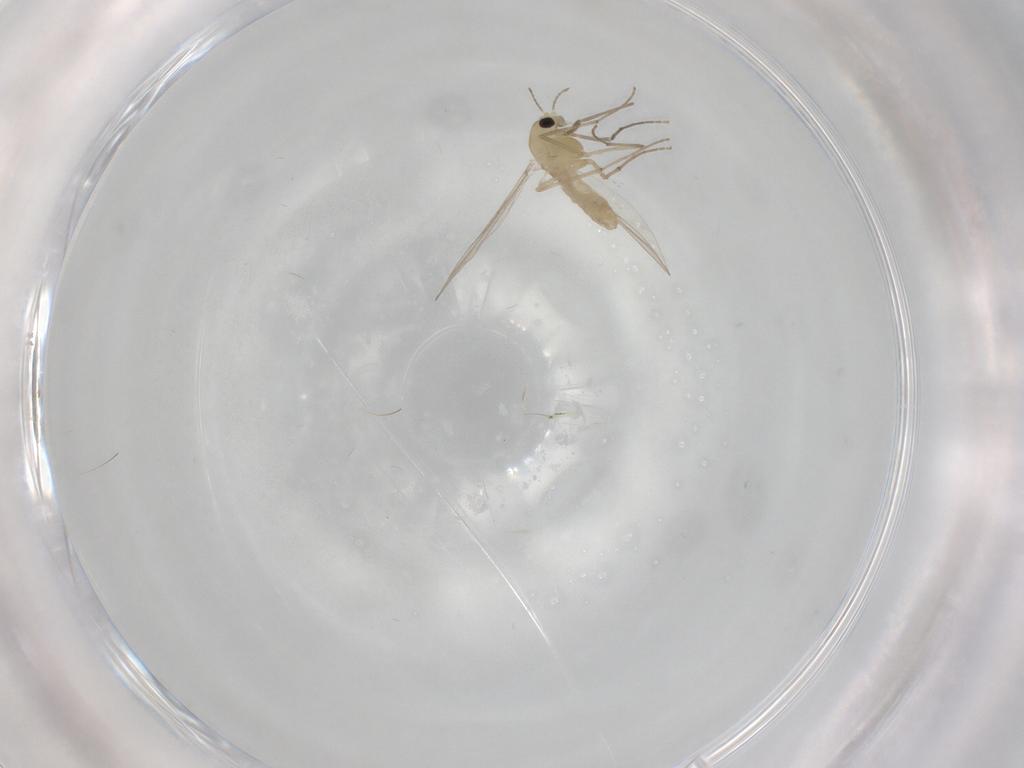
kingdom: Animalia
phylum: Arthropoda
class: Insecta
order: Diptera
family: Chironomidae
